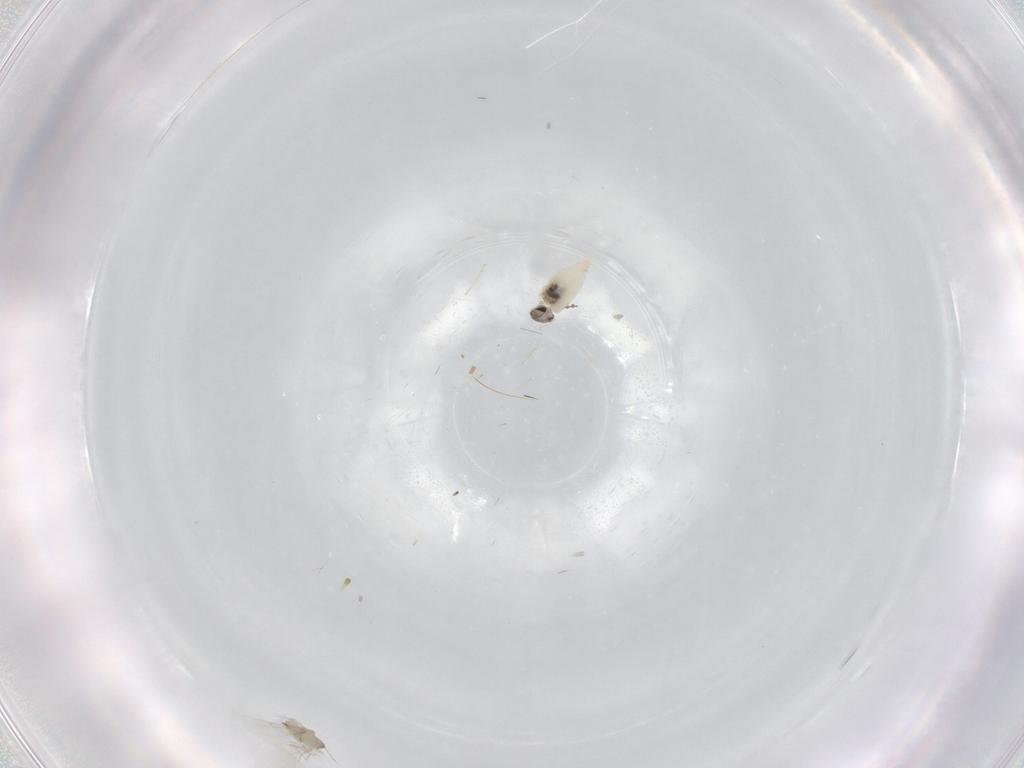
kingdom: Animalia
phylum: Arthropoda
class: Insecta
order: Diptera
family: Cecidomyiidae
